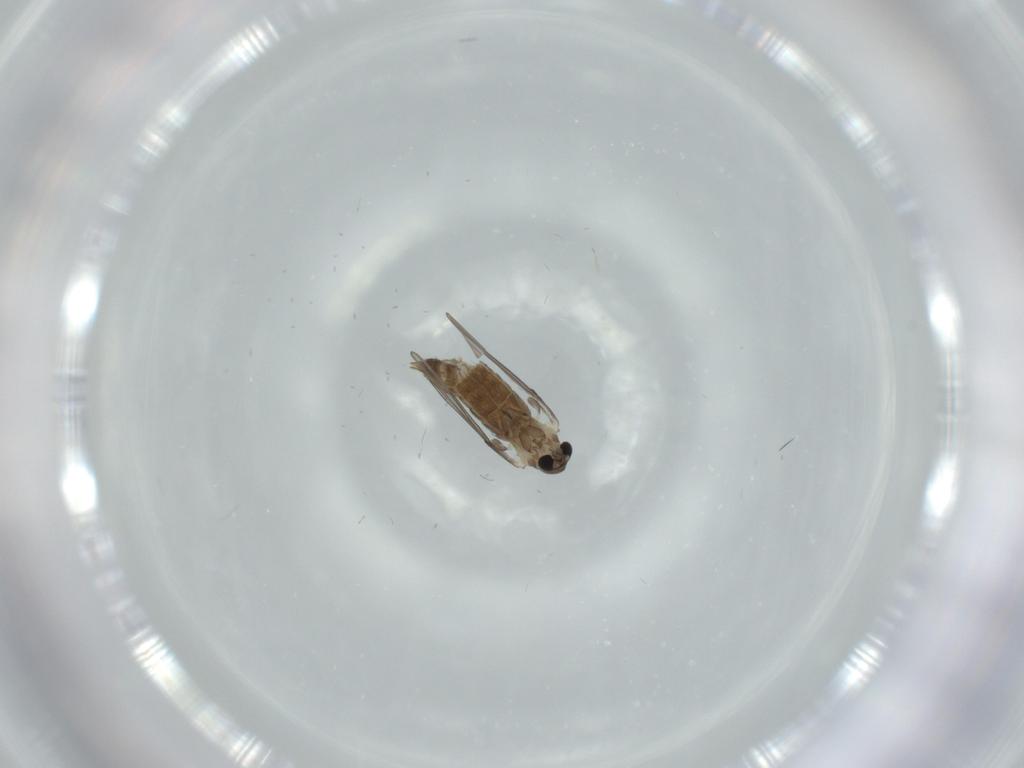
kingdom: Animalia
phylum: Arthropoda
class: Insecta
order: Diptera
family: Psychodidae
